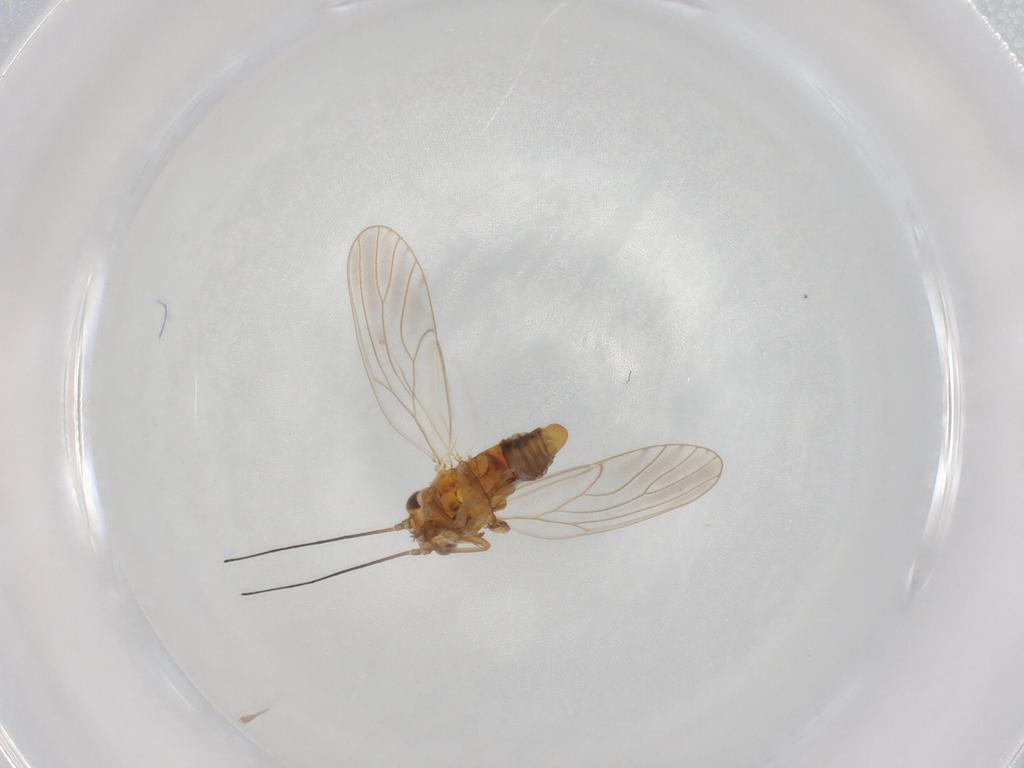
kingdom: Animalia
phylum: Arthropoda
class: Insecta
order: Hemiptera
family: Psylloidea_incertae_sedis
